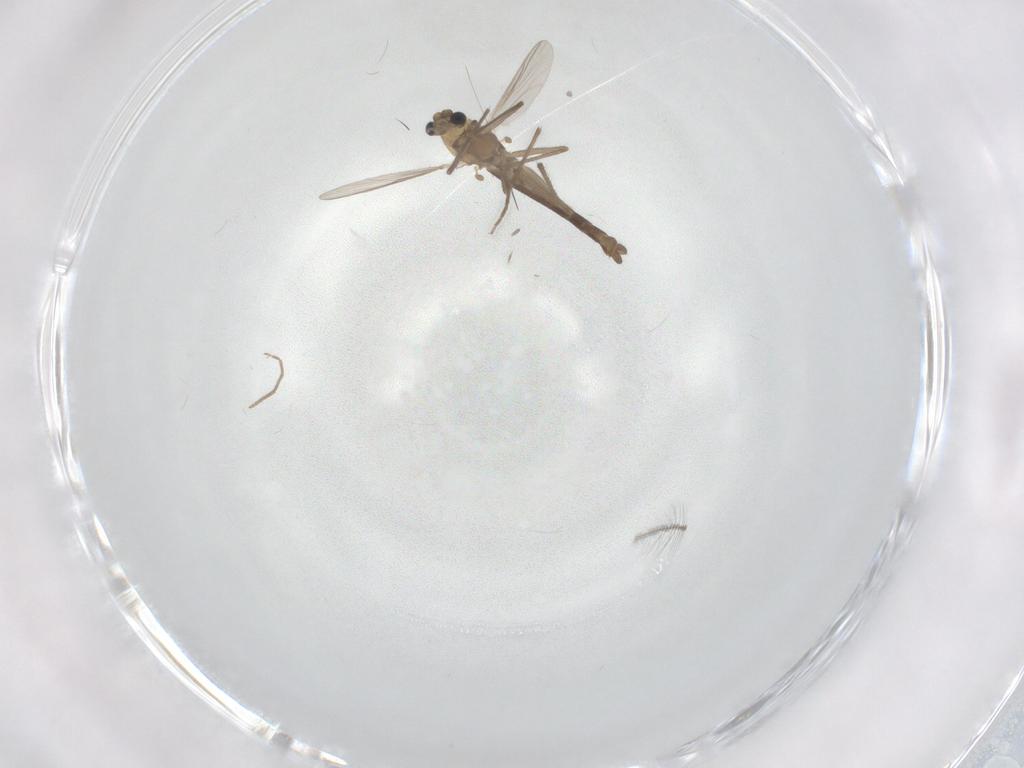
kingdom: Animalia
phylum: Arthropoda
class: Insecta
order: Diptera
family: Chironomidae
